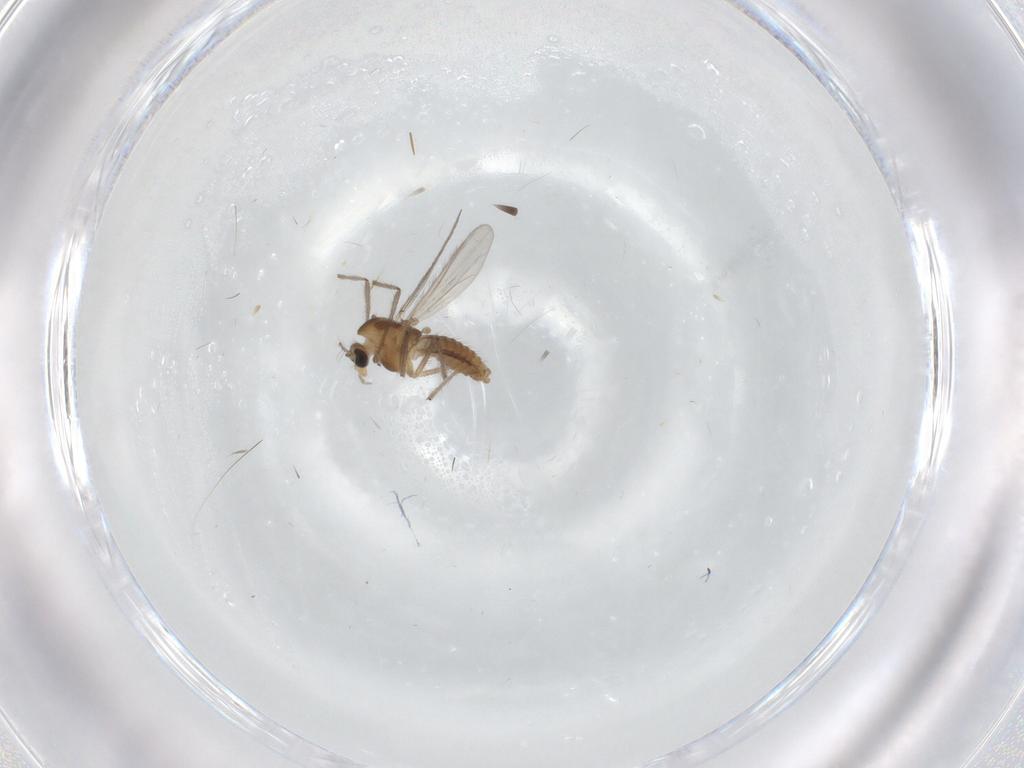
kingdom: Animalia
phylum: Arthropoda
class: Insecta
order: Diptera
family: Chironomidae
